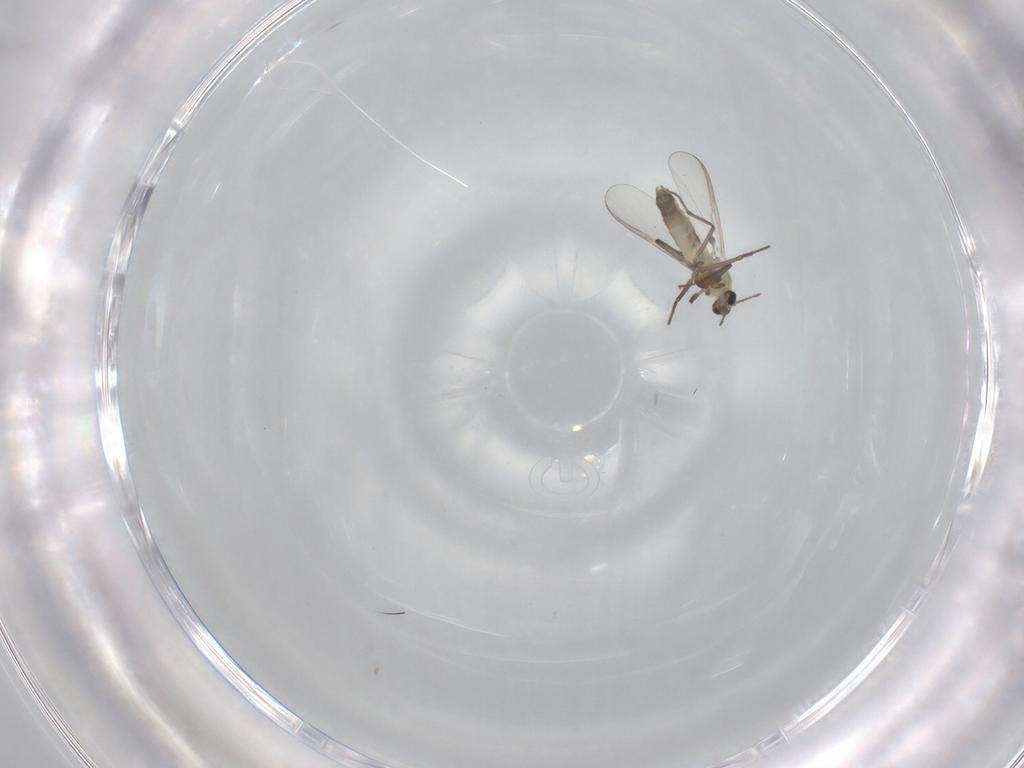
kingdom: Animalia
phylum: Arthropoda
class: Insecta
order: Diptera
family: Chironomidae
